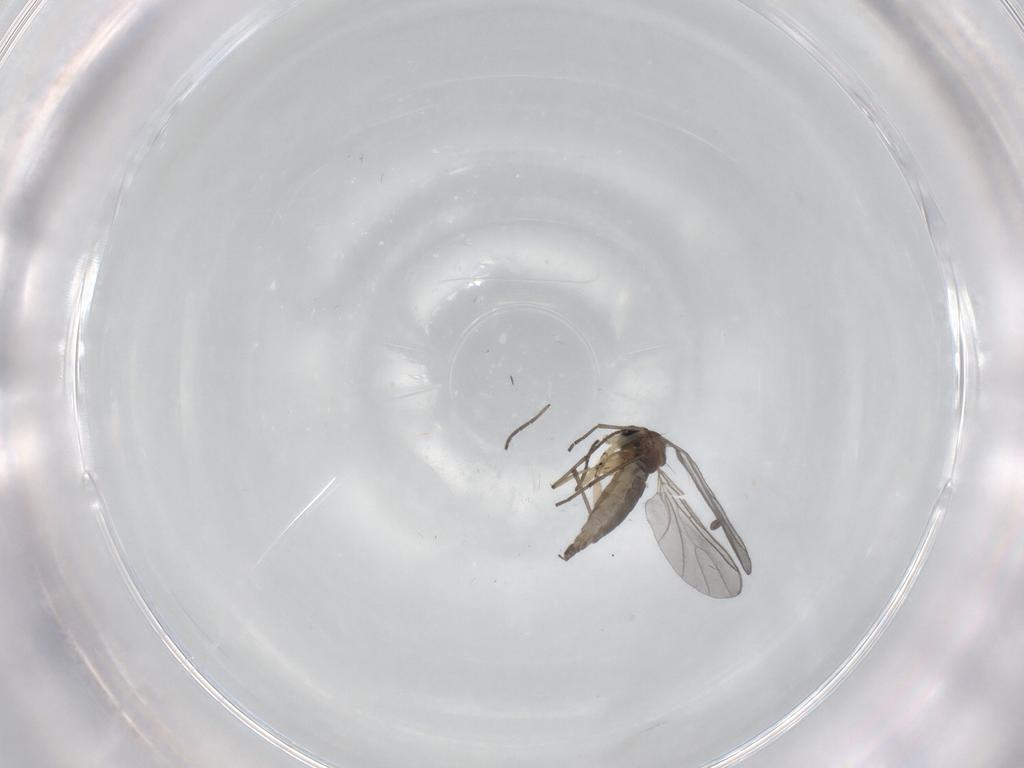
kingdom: Animalia
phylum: Arthropoda
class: Insecta
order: Diptera
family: Sciaridae
